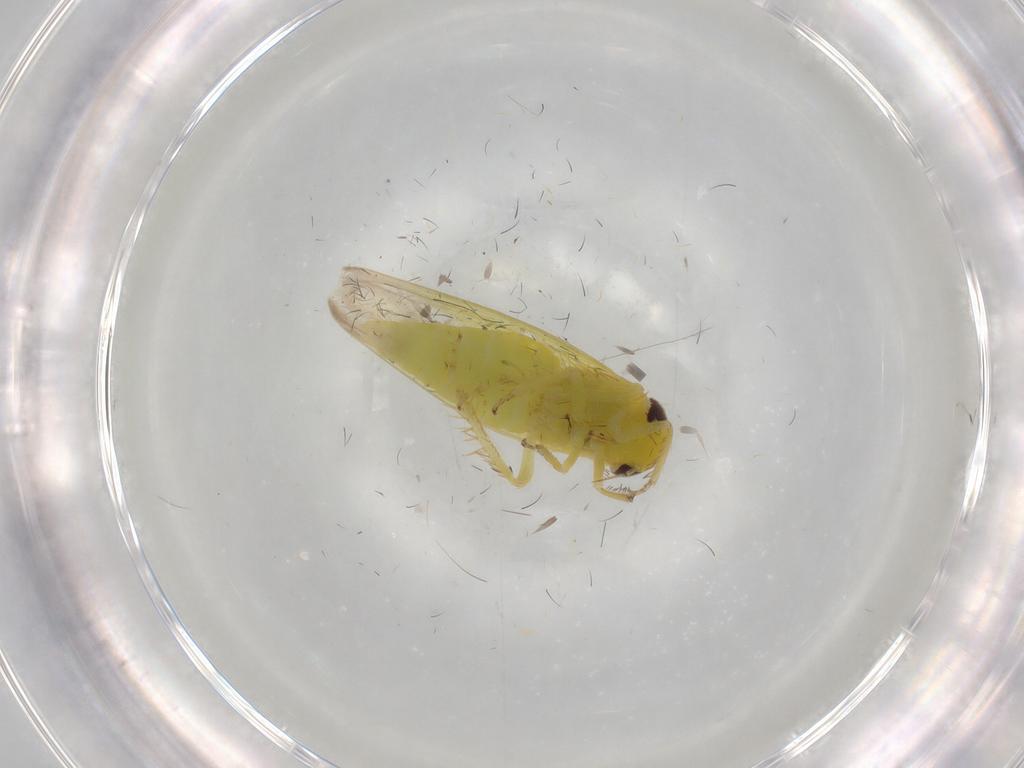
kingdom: Animalia
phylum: Arthropoda
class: Insecta
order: Hemiptera
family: Cicadellidae
